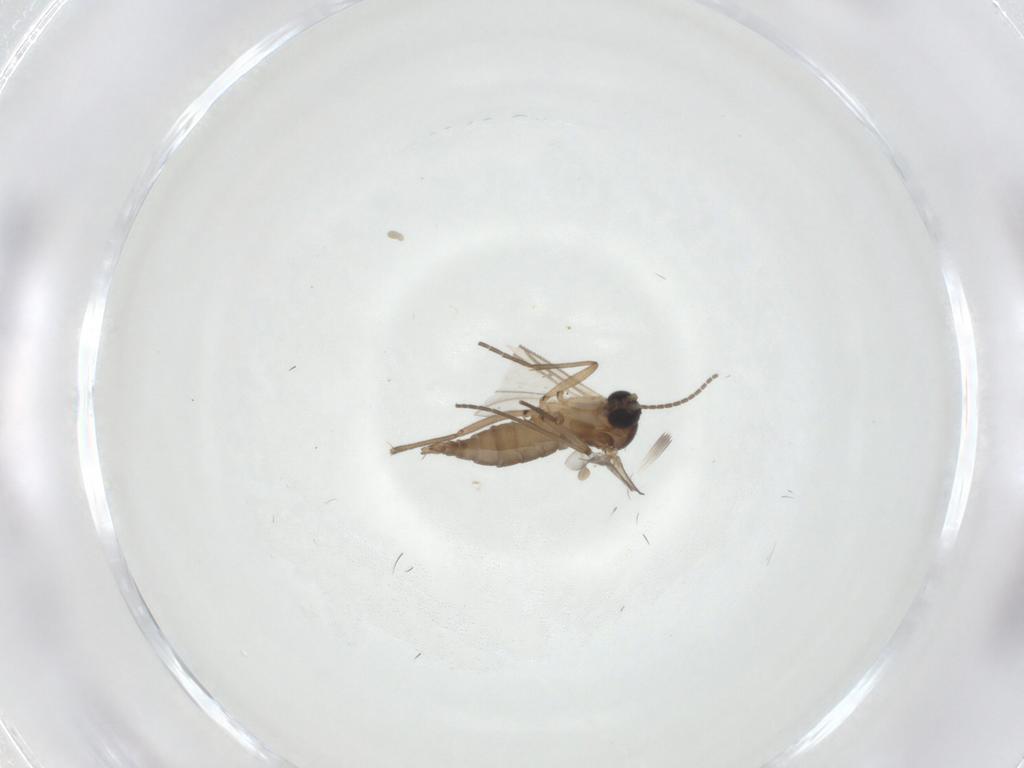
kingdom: Animalia
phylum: Arthropoda
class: Insecta
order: Diptera
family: Sciaridae
